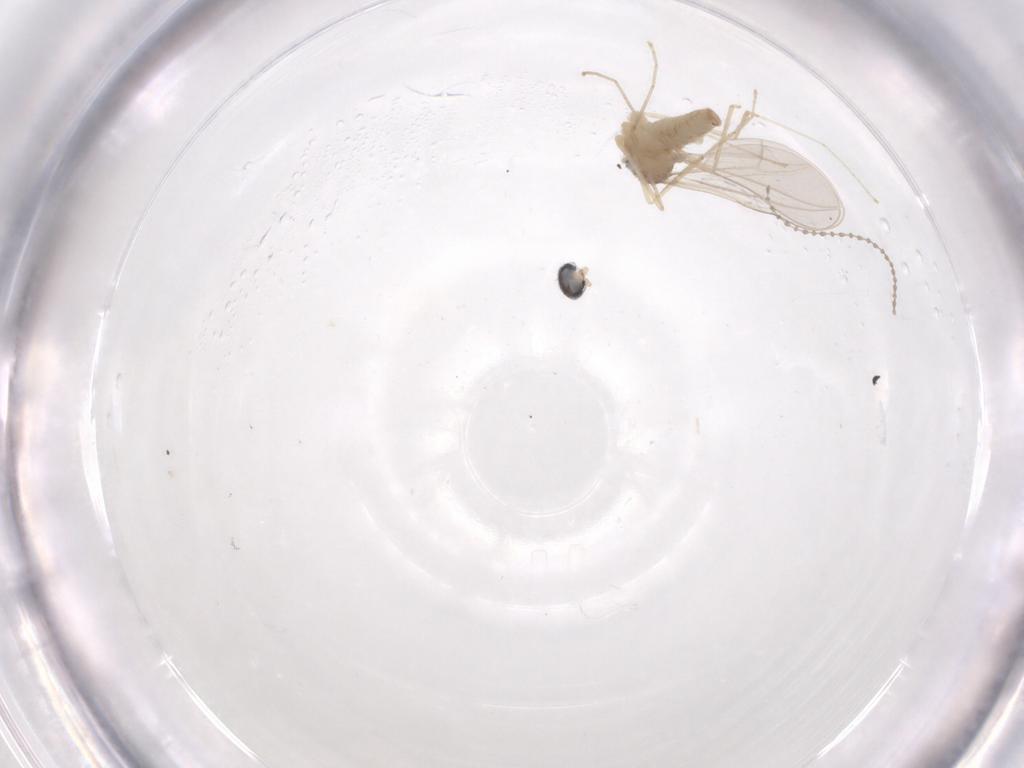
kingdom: Animalia
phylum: Arthropoda
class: Insecta
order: Diptera
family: Cecidomyiidae
